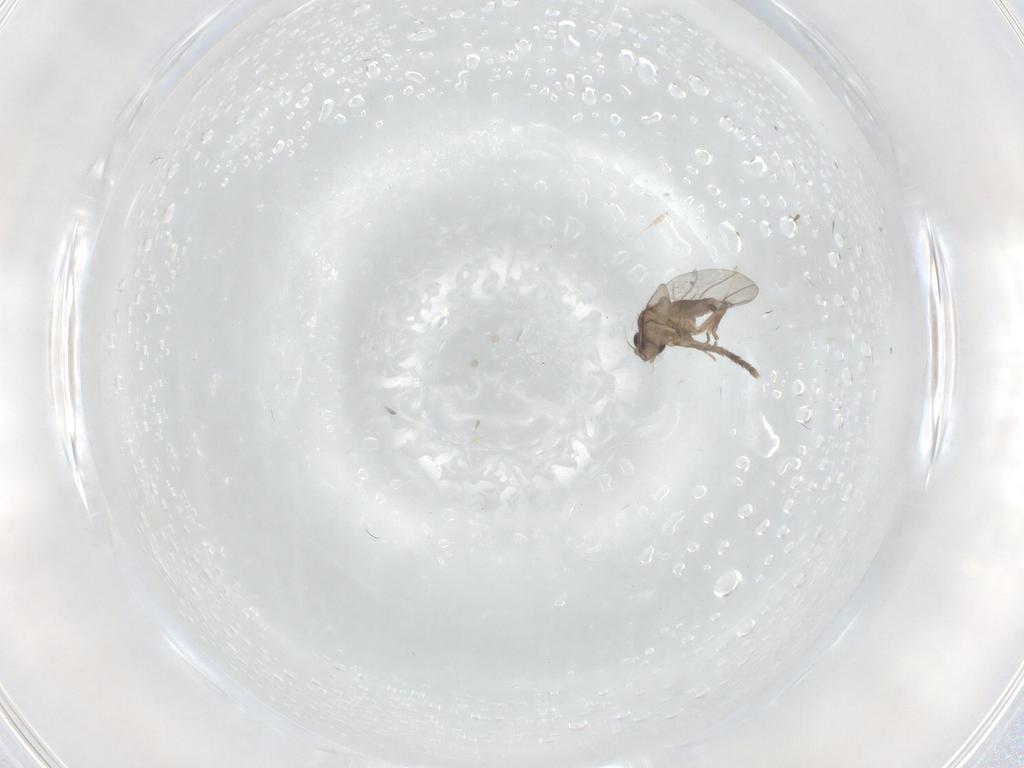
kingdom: Animalia
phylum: Arthropoda
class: Insecta
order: Diptera
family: Psychodidae
